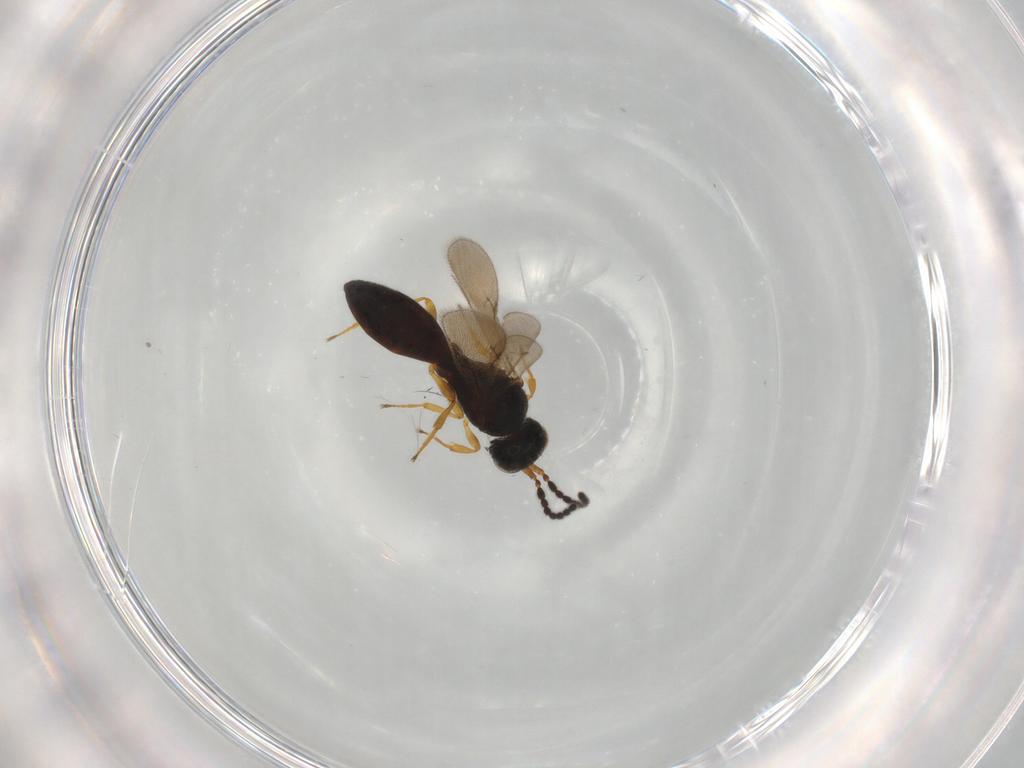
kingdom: Animalia
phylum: Arthropoda
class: Insecta
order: Hymenoptera
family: Scelionidae
